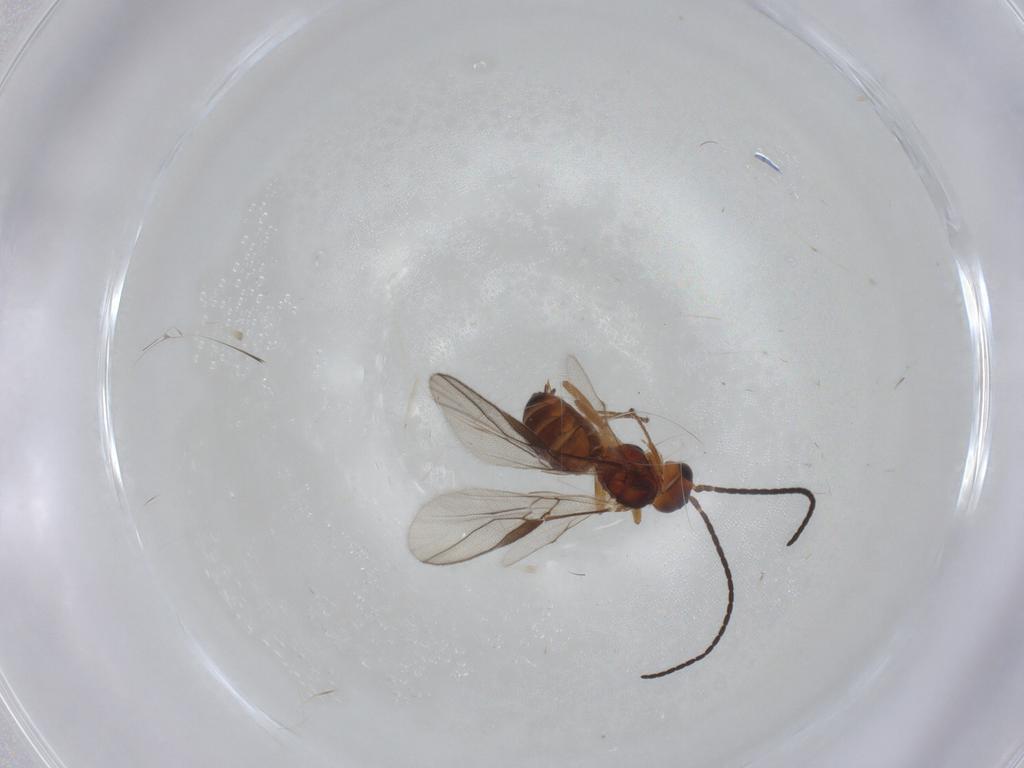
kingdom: Animalia
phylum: Arthropoda
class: Insecta
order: Hymenoptera
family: Braconidae
